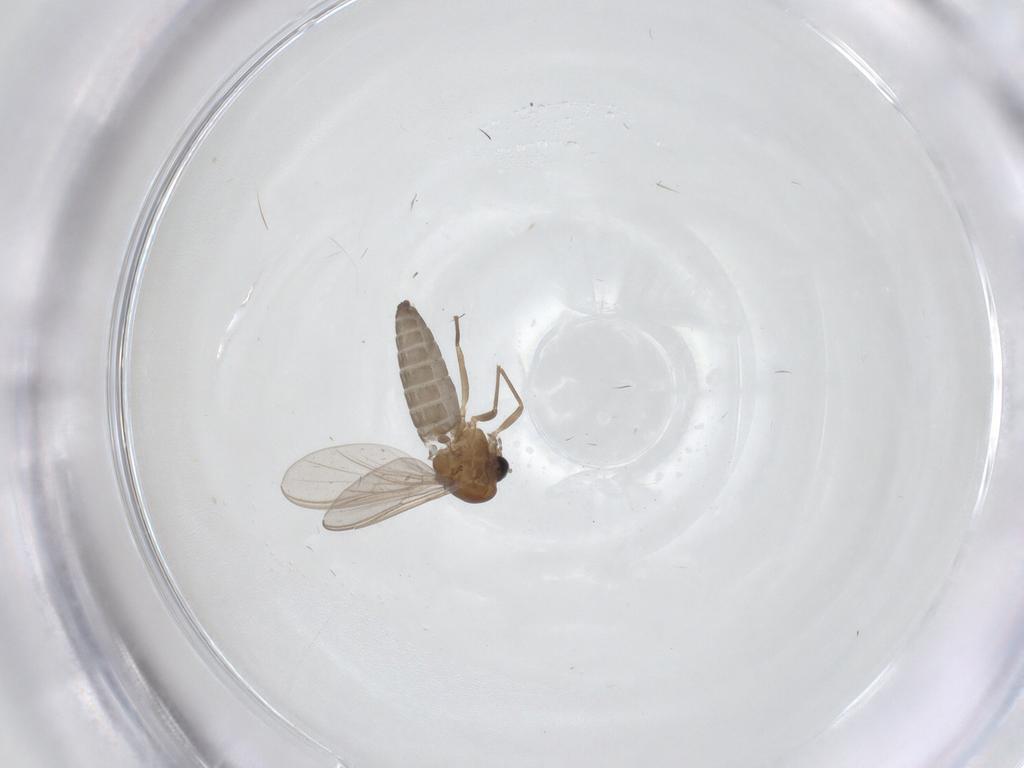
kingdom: Animalia
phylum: Arthropoda
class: Insecta
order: Diptera
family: Chironomidae
